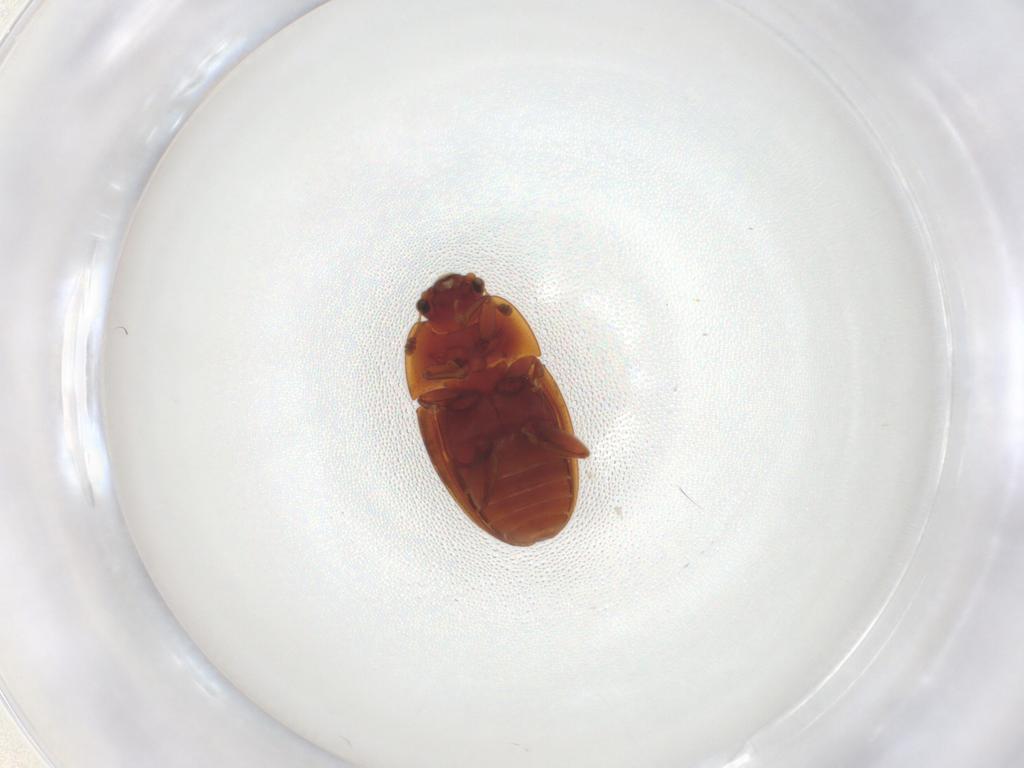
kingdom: Animalia
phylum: Arthropoda
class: Insecta
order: Coleoptera
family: Nitidulidae
